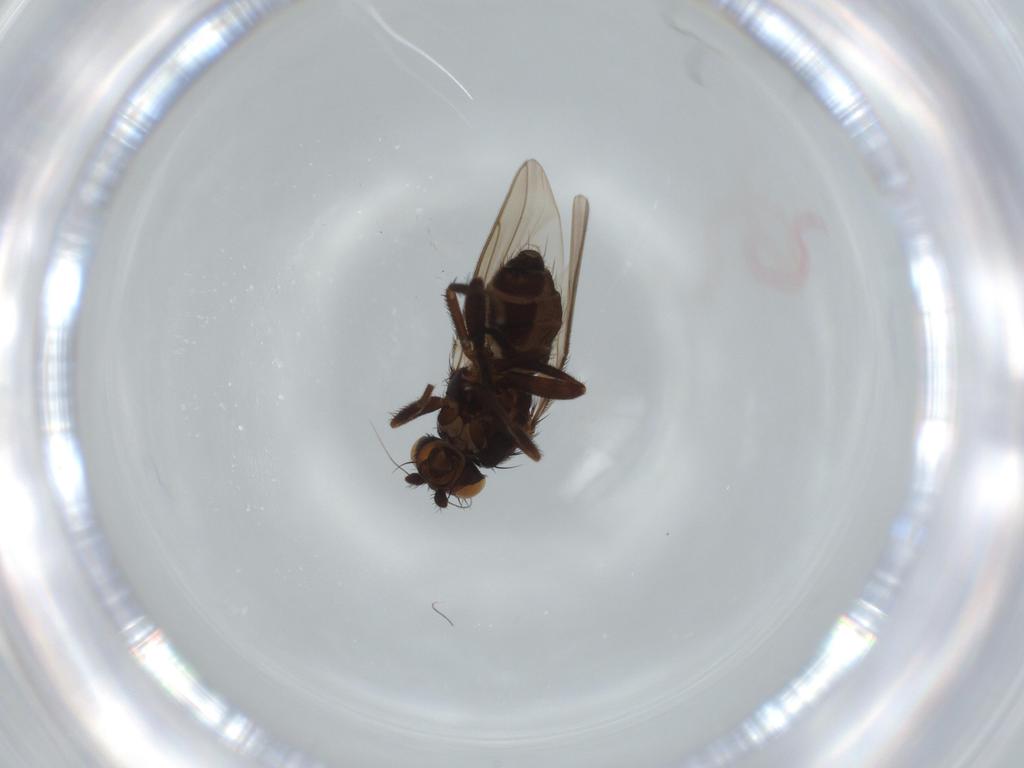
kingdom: Animalia
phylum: Arthropoda
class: Insecta
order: Diptera
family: Sphaeroceridae
